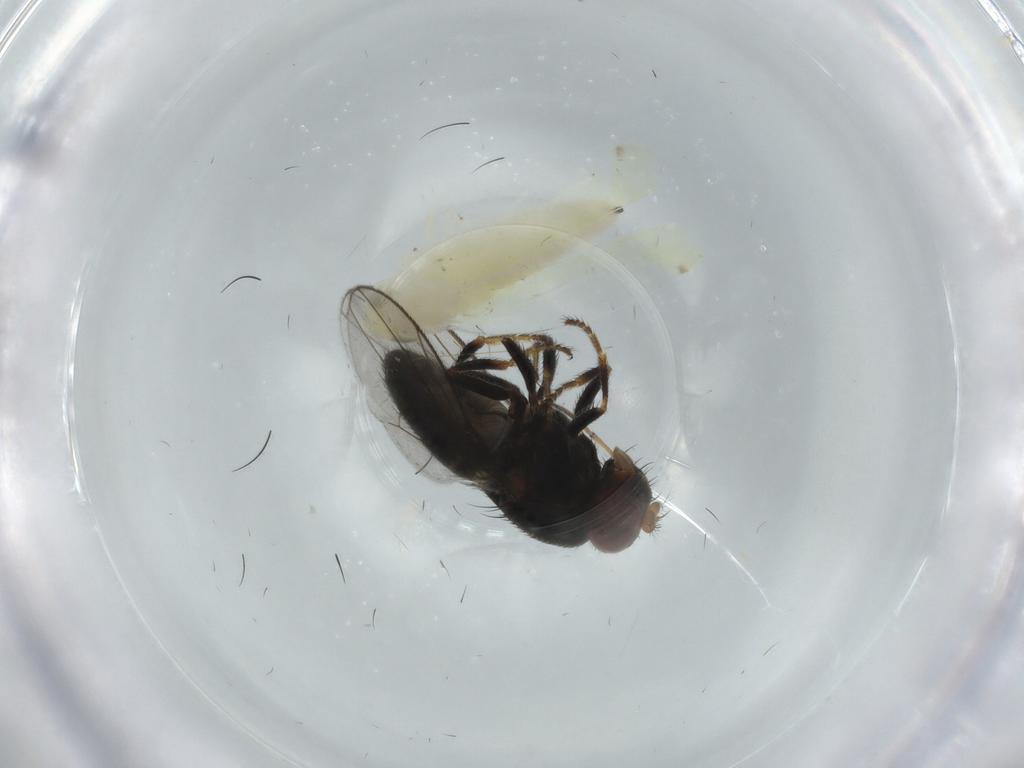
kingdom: Animalia
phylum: Arthropoda
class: Insecta
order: Hemiptera
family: Cicadellidae
